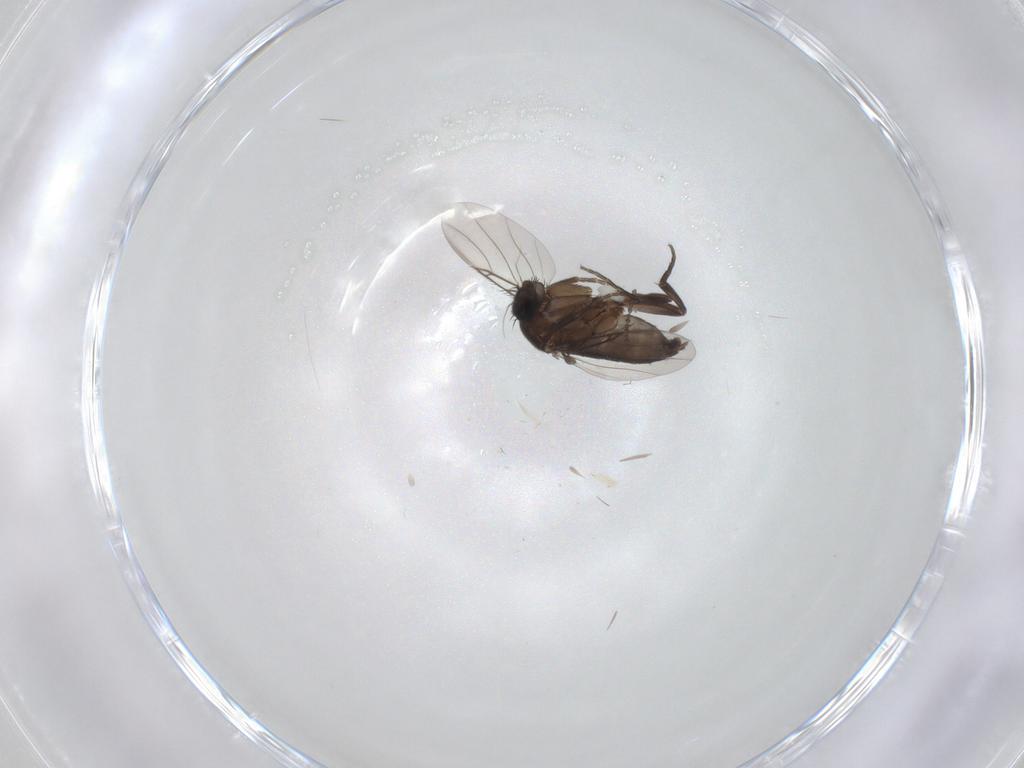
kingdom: Animalia
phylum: Arthropoda
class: Insecta
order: Diptera
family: Phoridae
